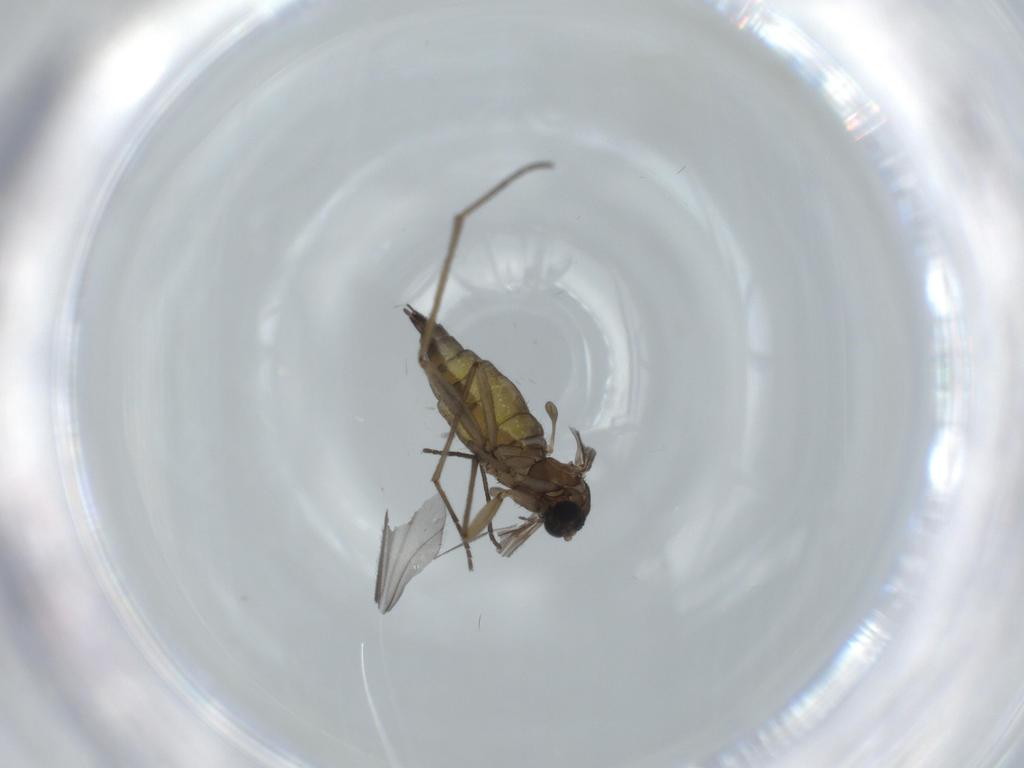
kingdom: Animalia
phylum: Arthropoda
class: Insecta
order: Diptera
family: Sciaridae
